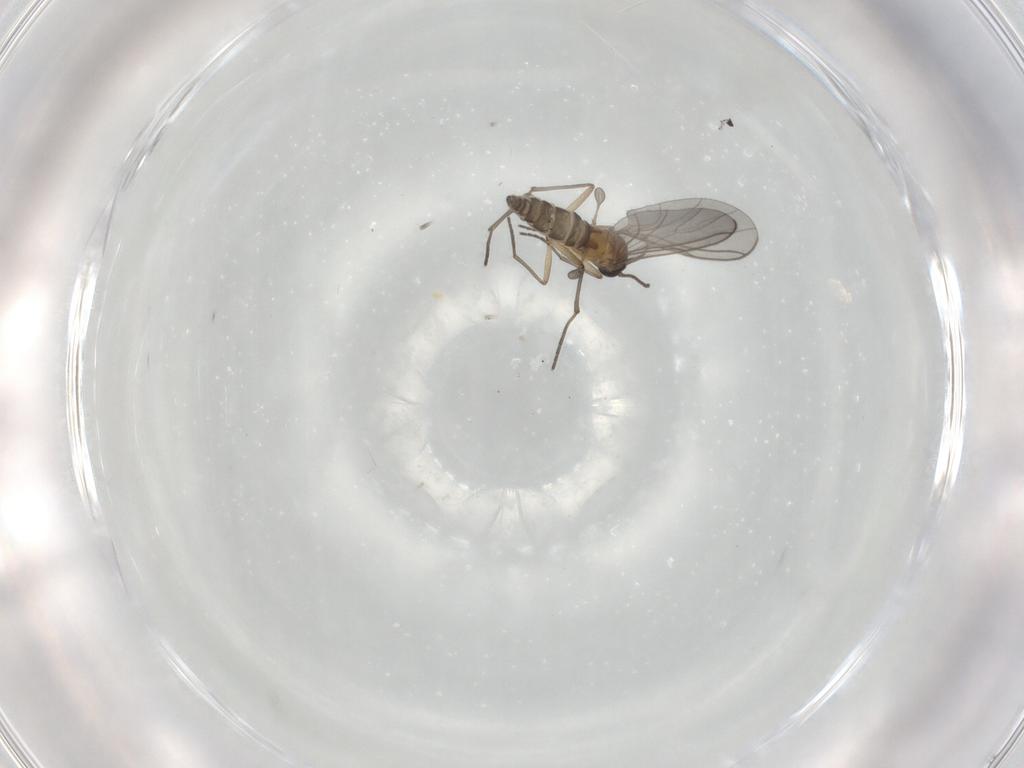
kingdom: Animalia
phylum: Arthropoda
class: Insecta
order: Diptera
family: Sciaridae
